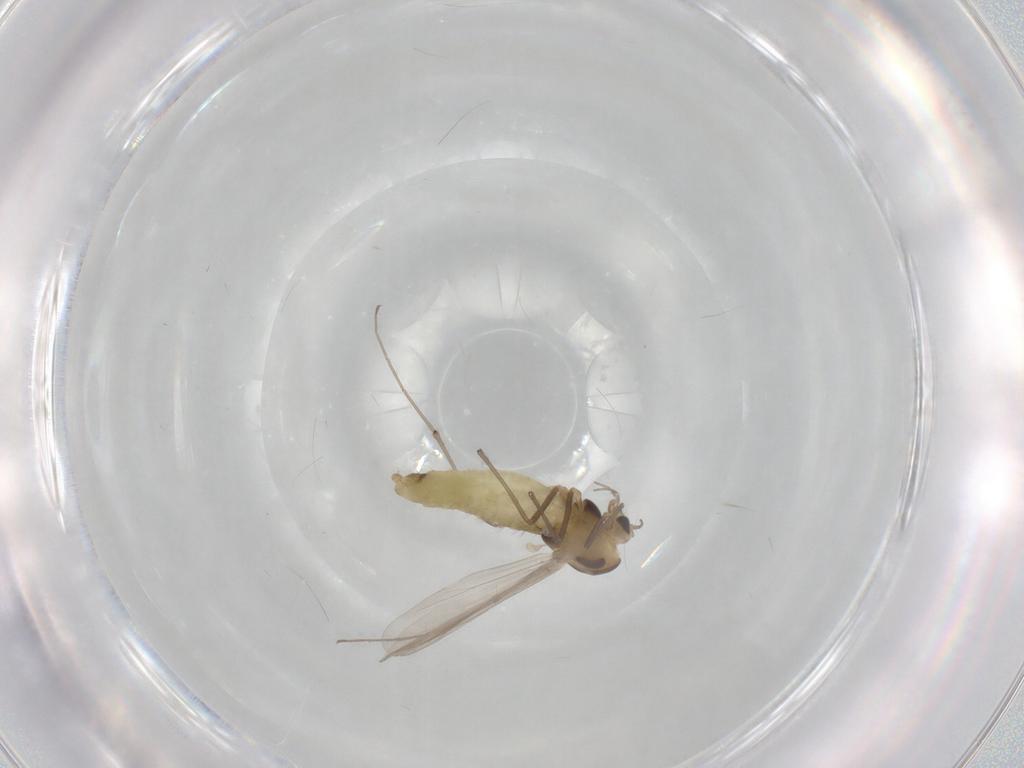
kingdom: Animalia
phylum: Arthropoda
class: Insecta
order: Diptera
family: Chironomidae
